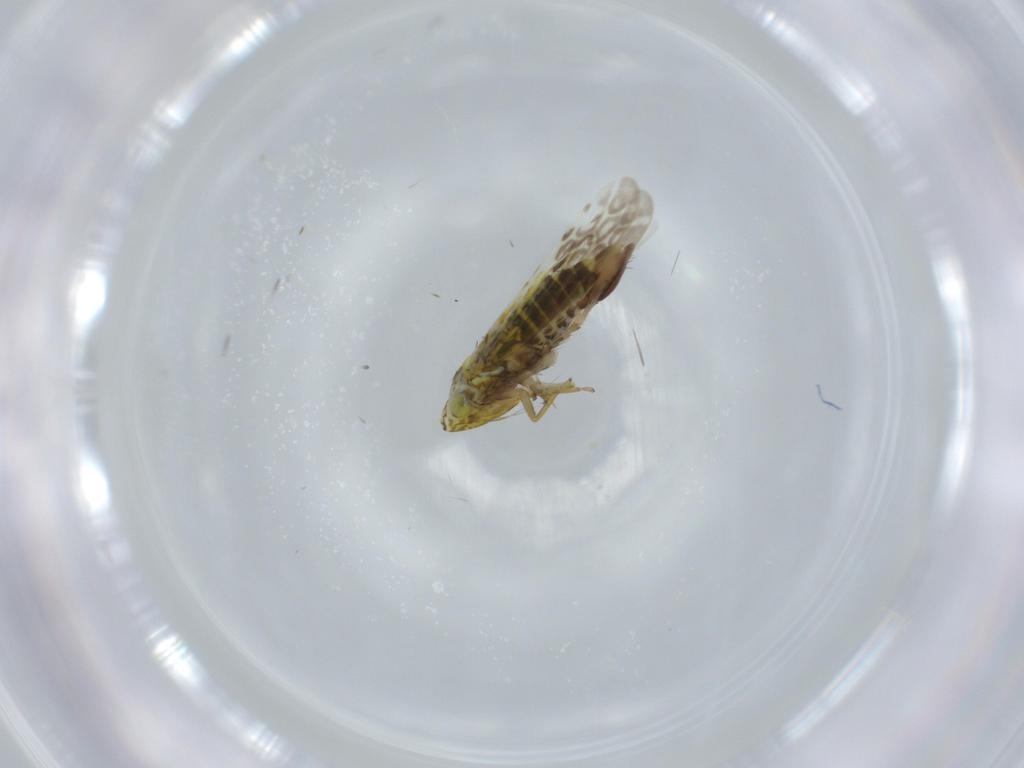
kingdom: Animalia
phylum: Arthropoda
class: Insecta
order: Hemiptera
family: Cicadellidae
